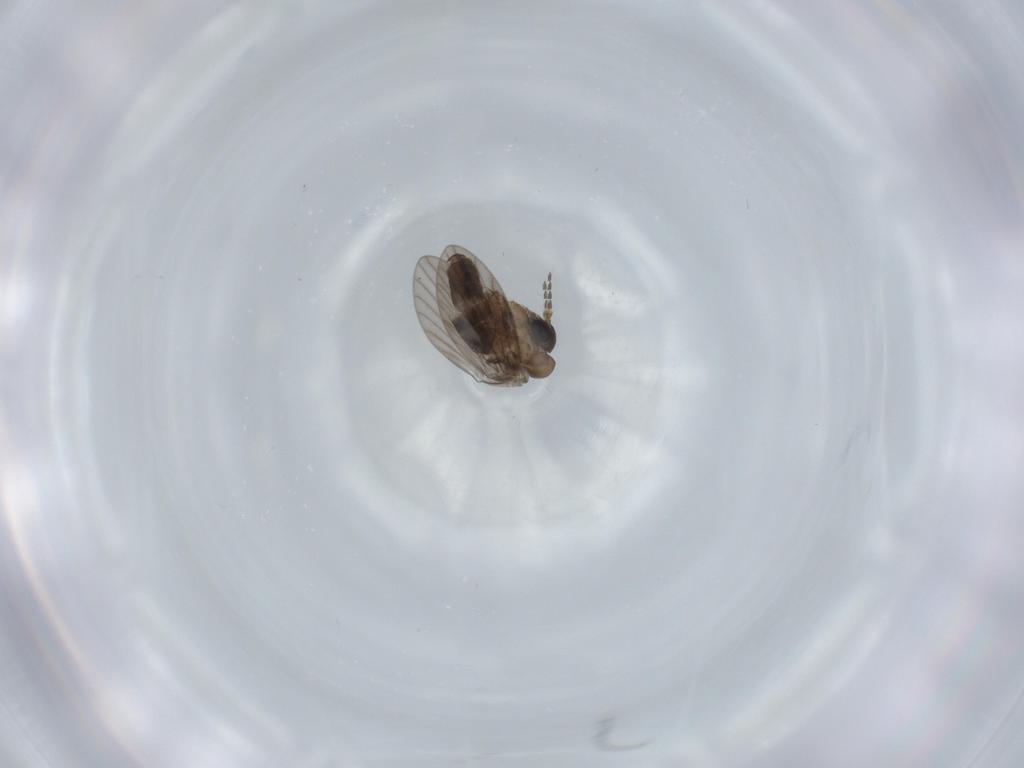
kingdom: Animalia
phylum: Arthropoda
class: Insecta
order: Diptera
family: Psychodidae
